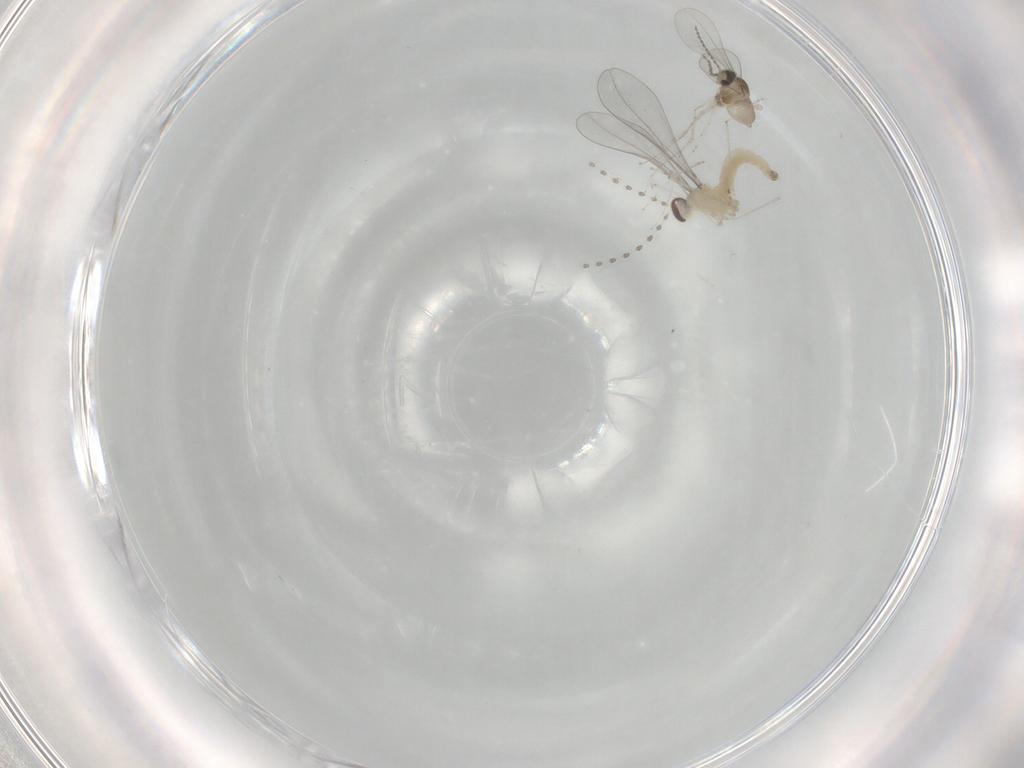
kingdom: Animalia
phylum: Arthropoda
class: Insecta
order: Diptera
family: Cecidomyiidae
